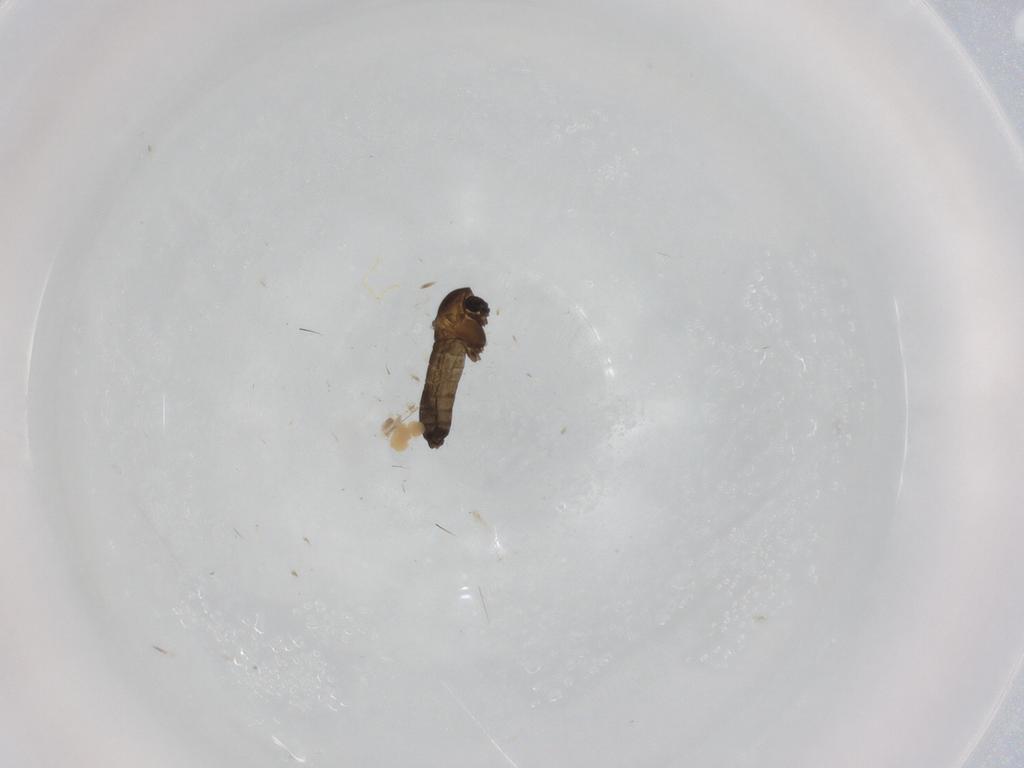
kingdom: Animalia
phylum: Arthropoda
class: Insecta
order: Diptera
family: Chironomidae
